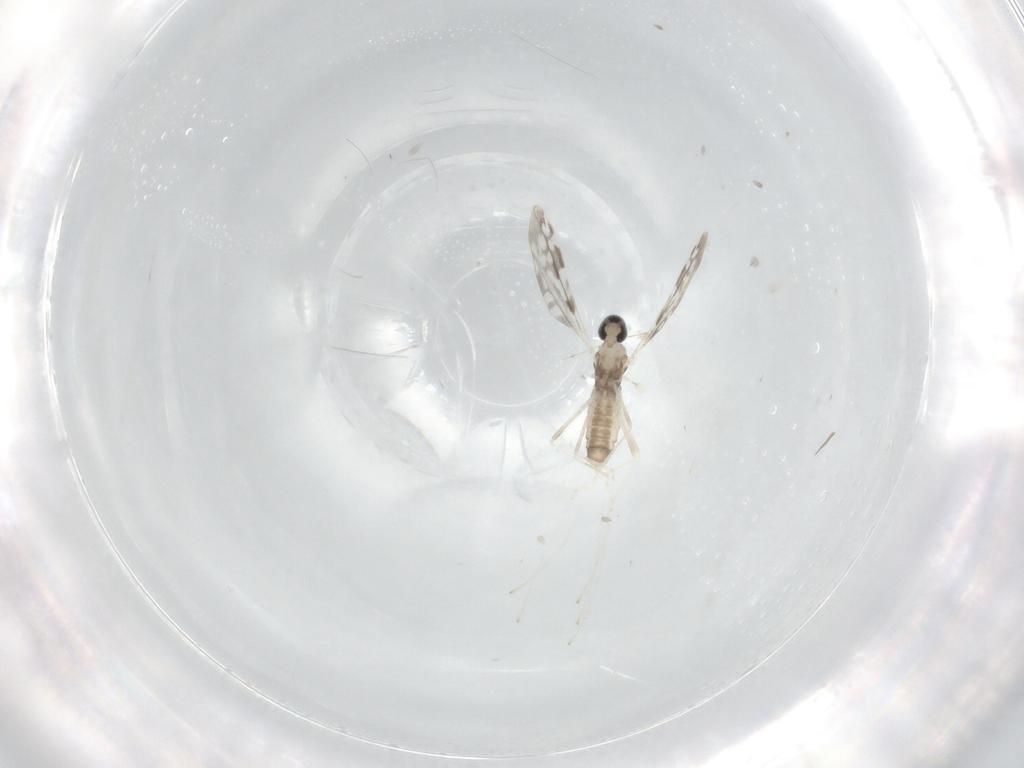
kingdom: Animalia
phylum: Arthropoda
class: Insecta
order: Diptera
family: Cecidomyiidae
